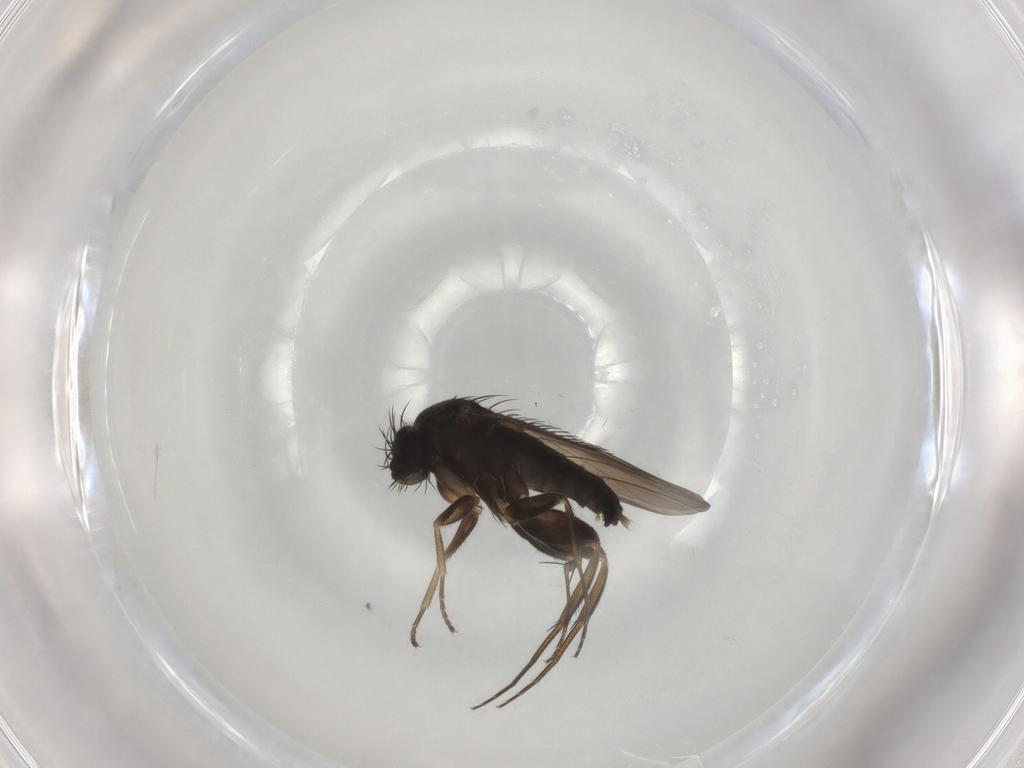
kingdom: Animalia
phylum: Arthropoda
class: Insecta
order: Diptera
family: Phoridae
